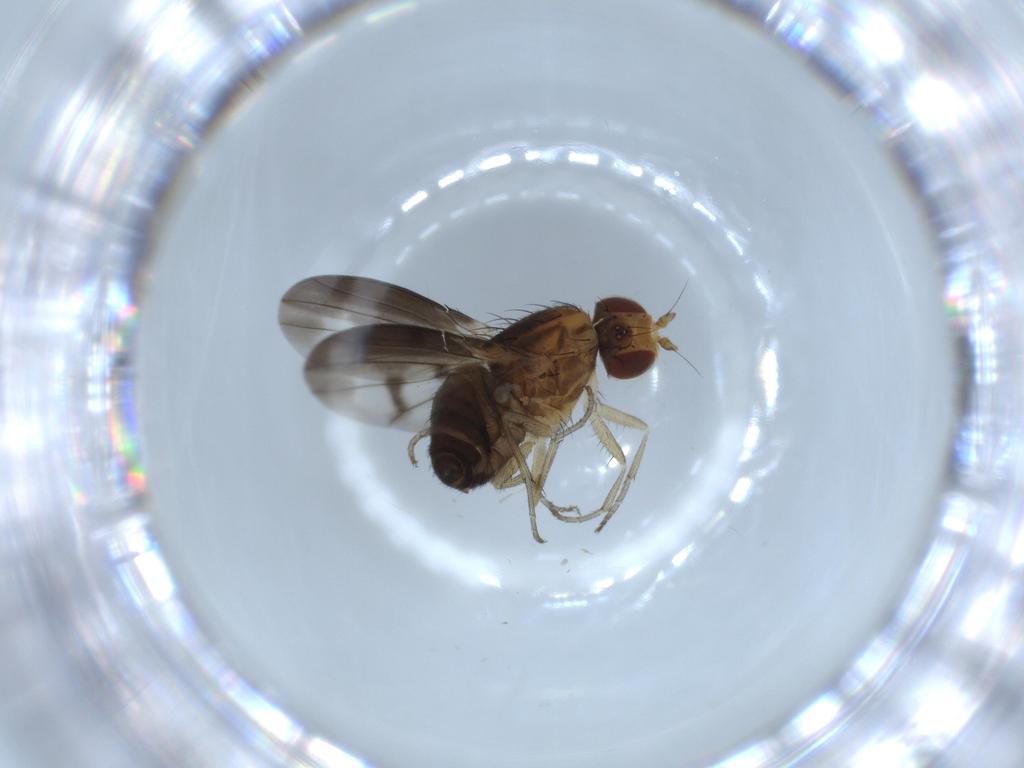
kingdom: Animalia
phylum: Arthropoda
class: Insecta
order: Diptera
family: Heleomyzidae
